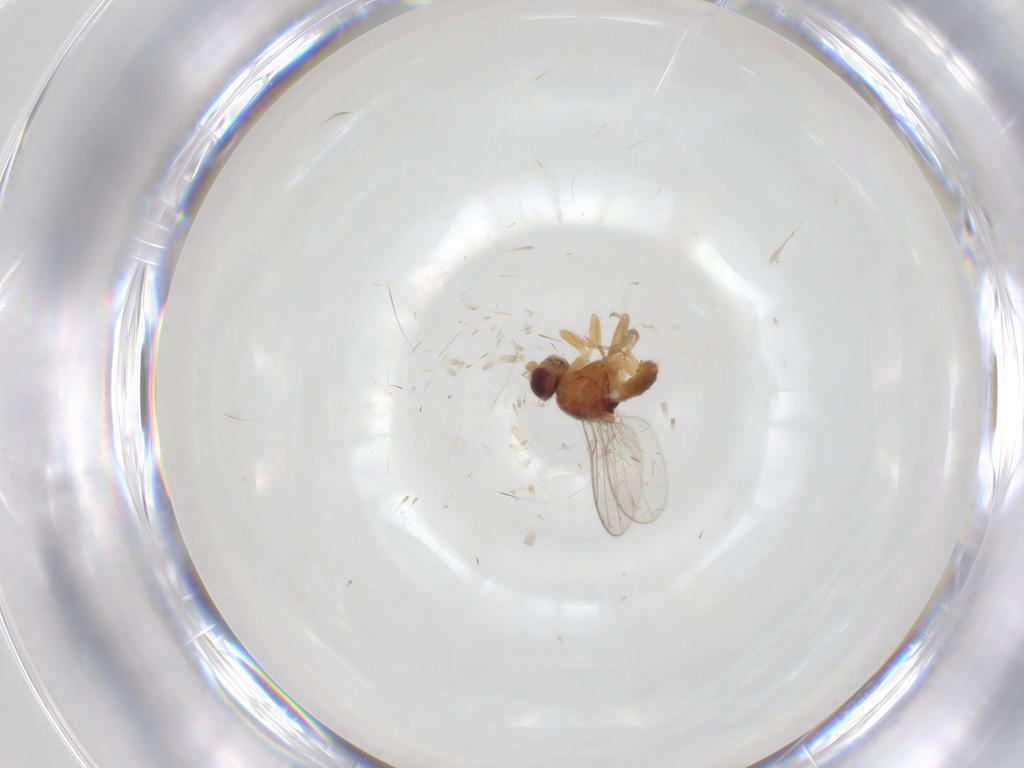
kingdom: Animalia
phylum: Arthropoda
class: Insecta
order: Diptera
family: Chloropidae
